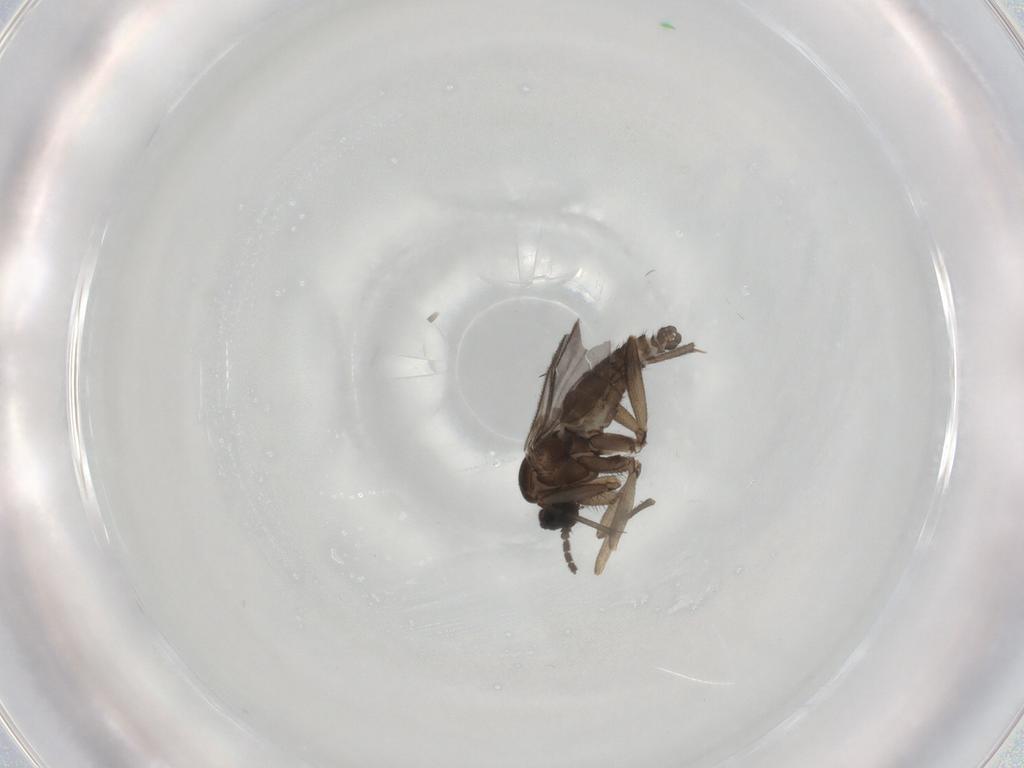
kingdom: Animalia
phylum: Arthropoda
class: Insecta
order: Diptera
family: Sciaridae
